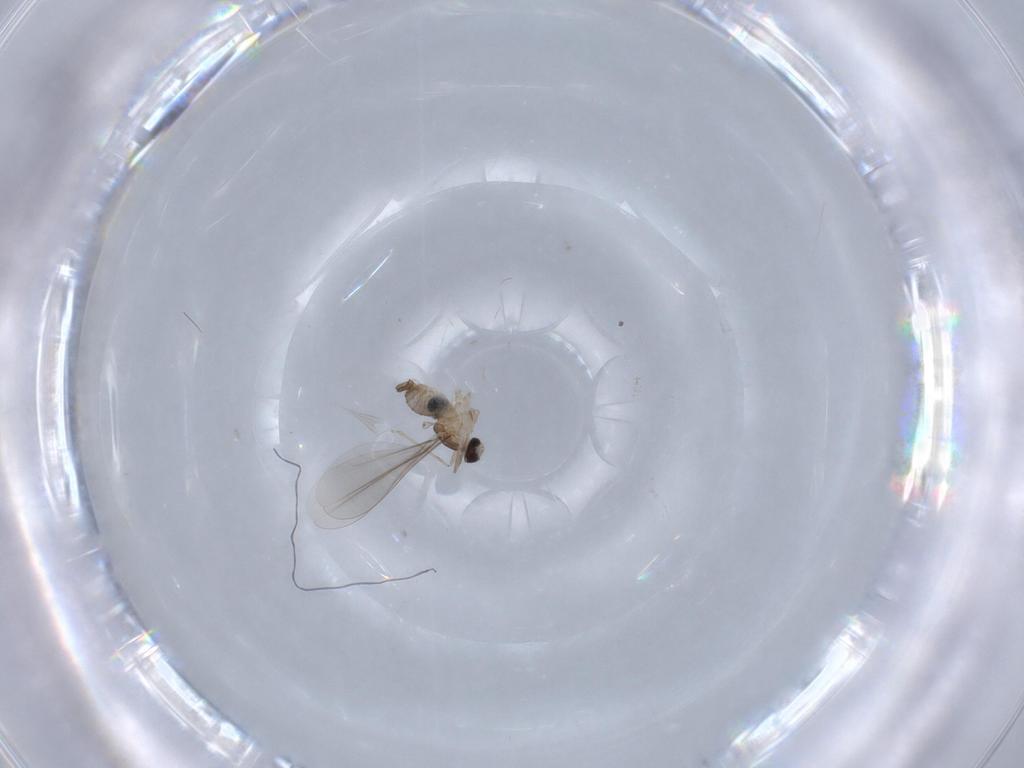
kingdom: Animalia
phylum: Arthropoda
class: Insecta
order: Diptera
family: Cecidomyiidae
